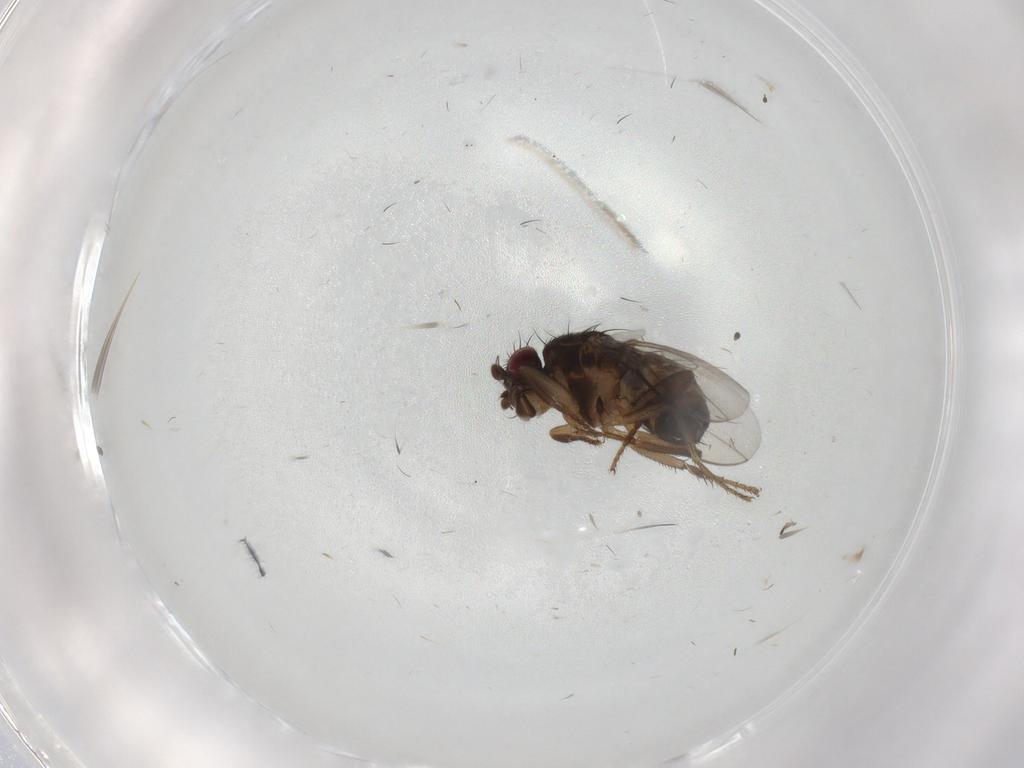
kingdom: Animalia
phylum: Arthropoda
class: Insecta
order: Diptera
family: Sphaeroceridae
